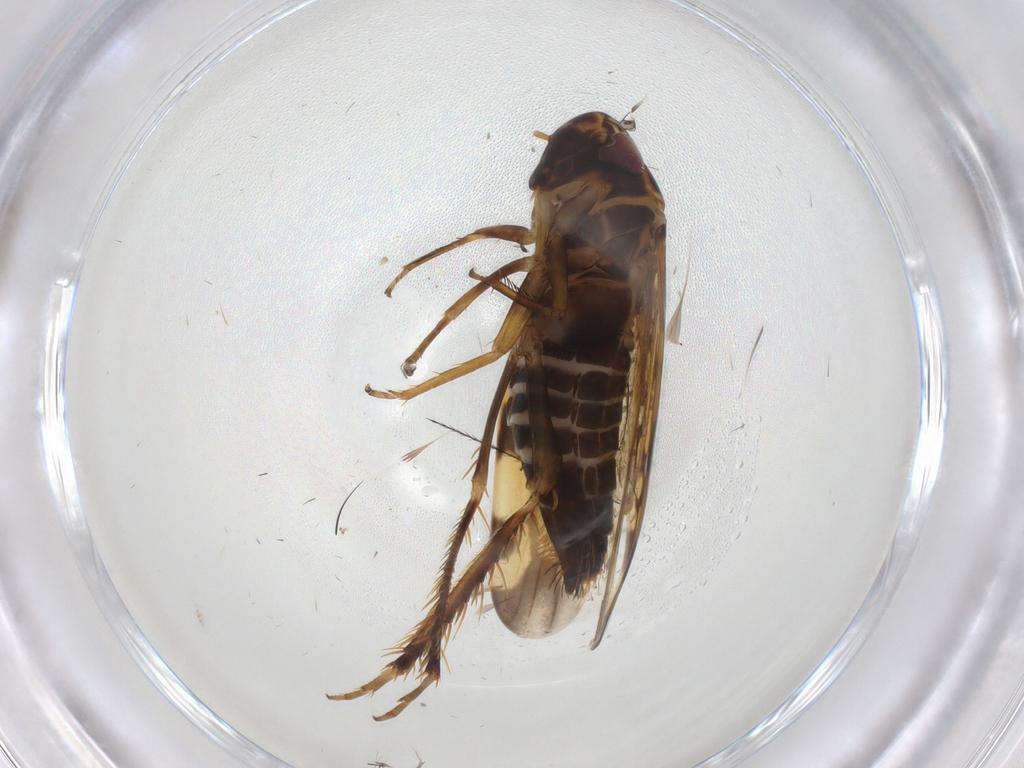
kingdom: Animalia
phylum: Arthropoda
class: Insecta
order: Hemiptera
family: Cicadellidae
